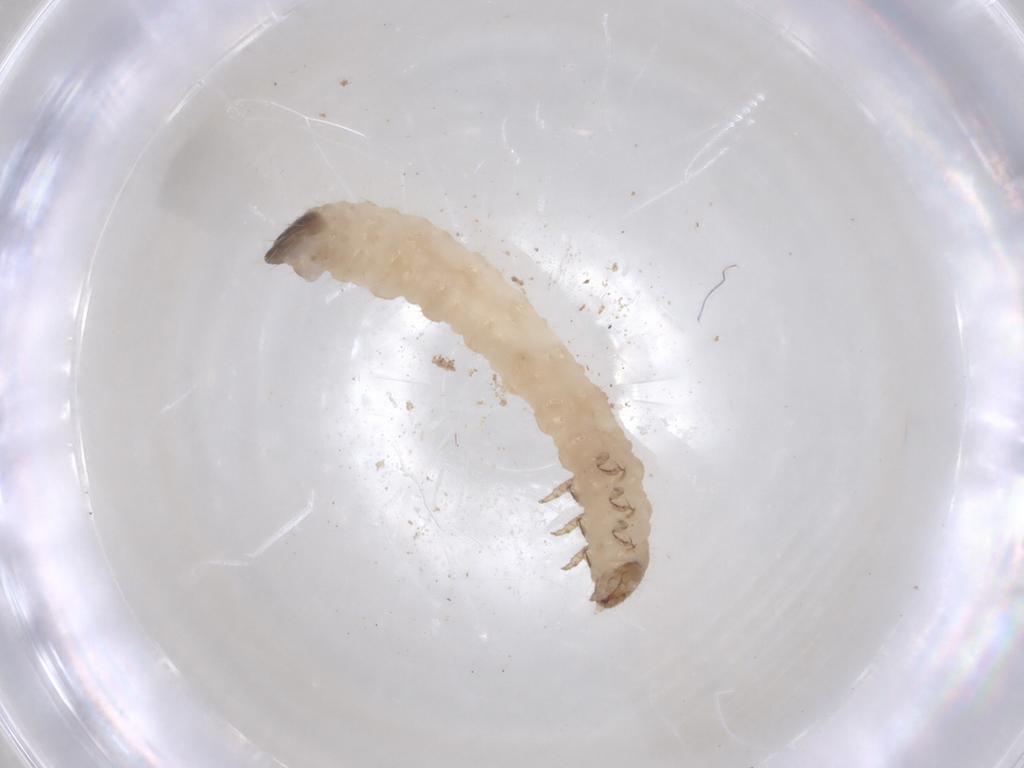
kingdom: Animalia
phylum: Arthropoda
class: Insecta
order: Coleoptera
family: Chrysomelidae
